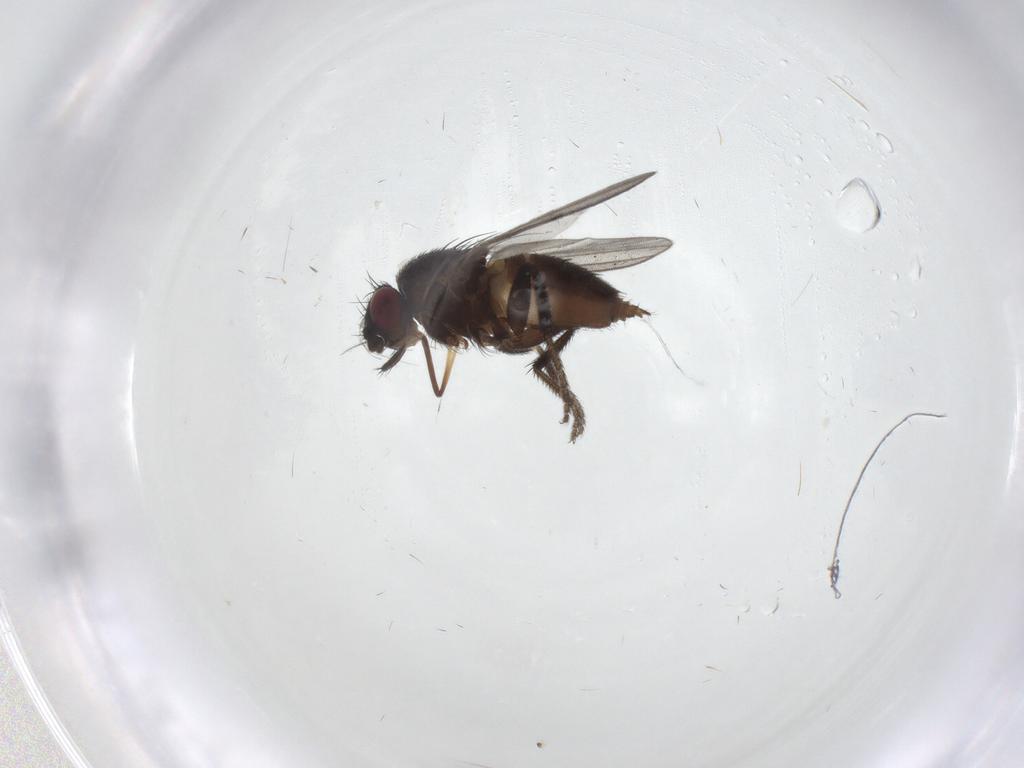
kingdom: Animalia
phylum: Arthropoda
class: Insecta
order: Diptera
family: Milichiidae
